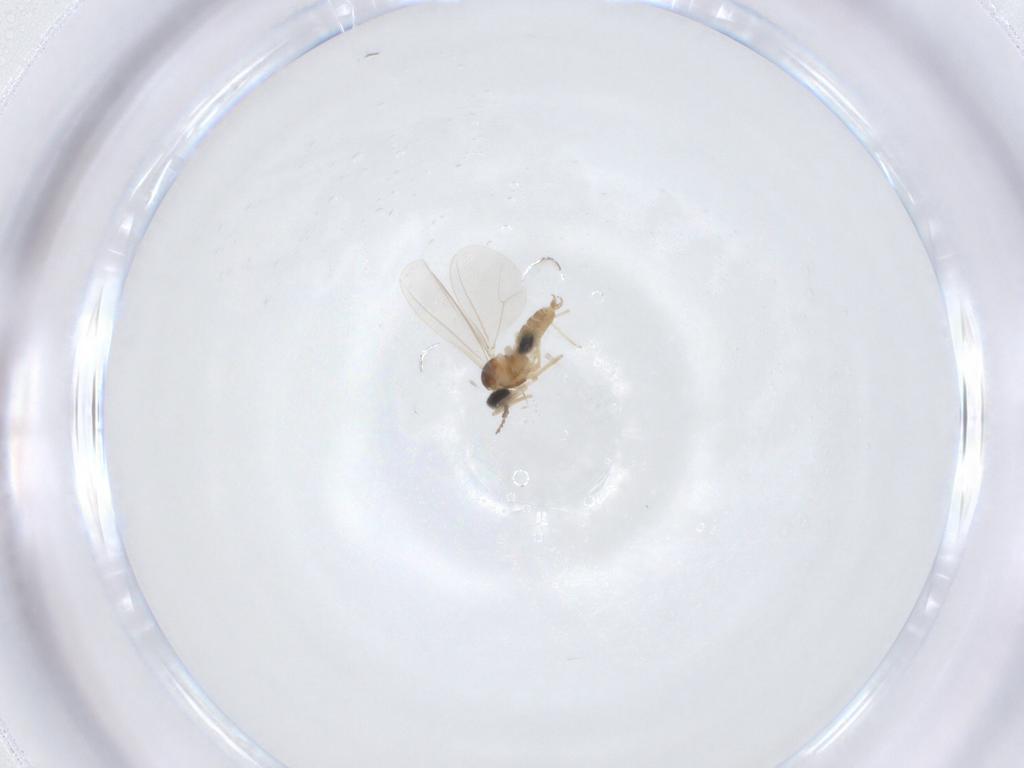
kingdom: Animalia
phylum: Arthropoda
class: Insecta
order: Diptera
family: Cecidomyiidae
